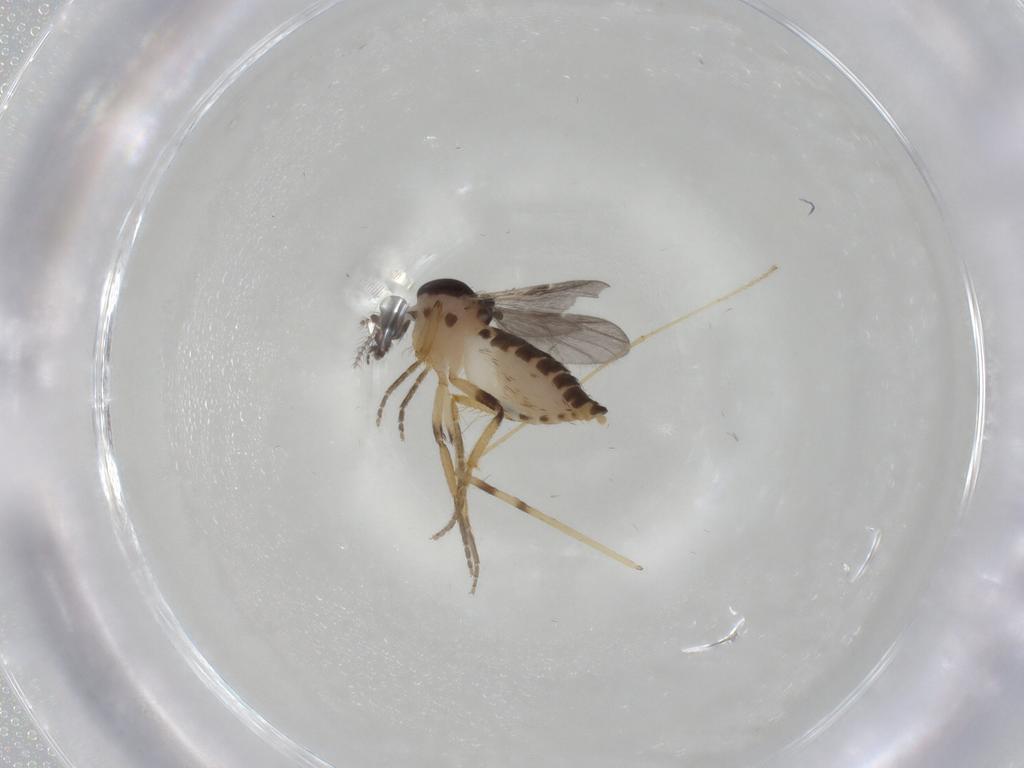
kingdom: Animalia
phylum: Arthropoda
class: Insecta
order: Diptera
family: Limoniidae
